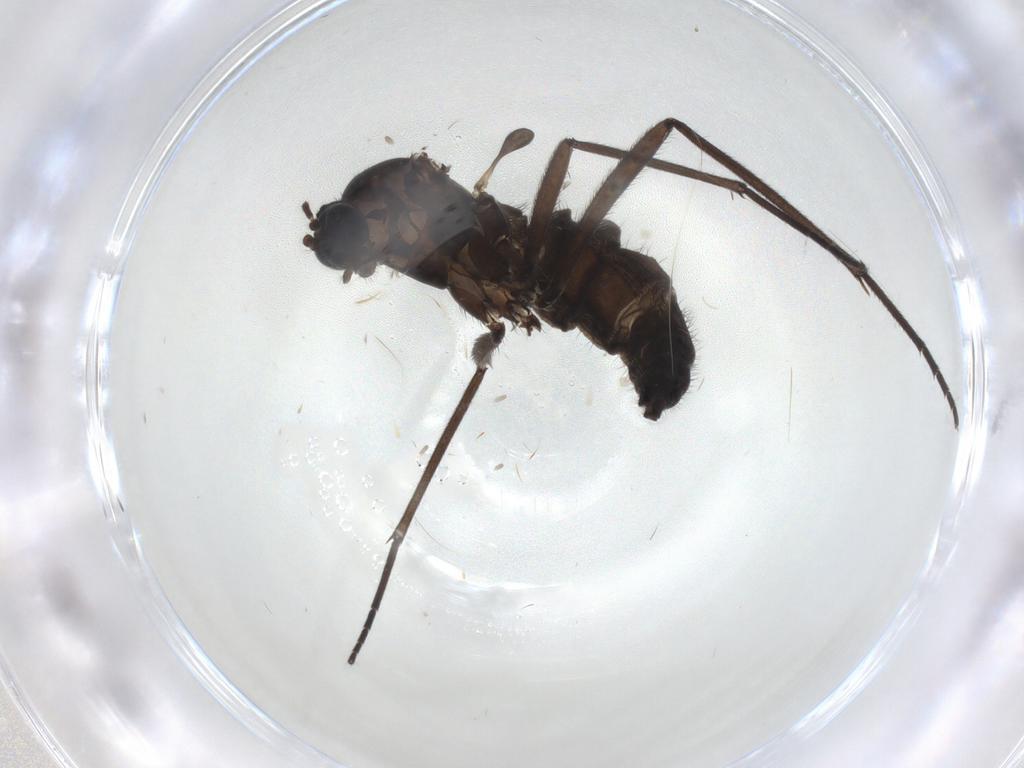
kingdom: Animalia
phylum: Arthropoda
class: Insecta
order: Diptera
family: Sciaridae
